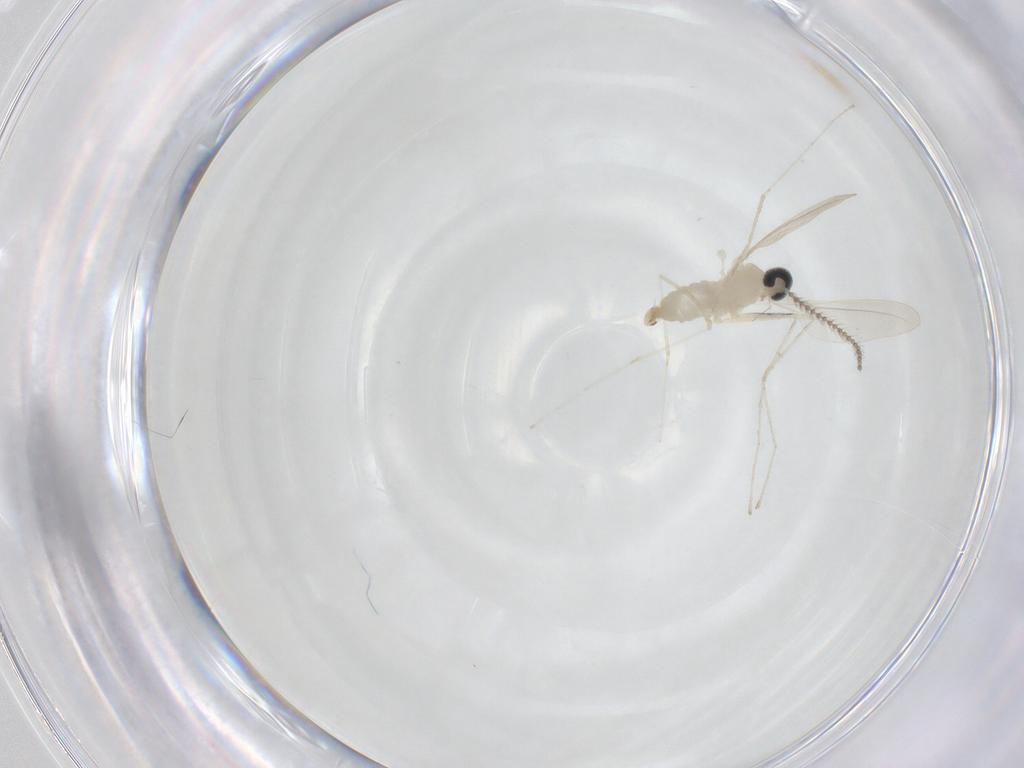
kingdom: Animalia
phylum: Arthropoda
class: Insecta
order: Diptera
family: Cecidomyiidae
